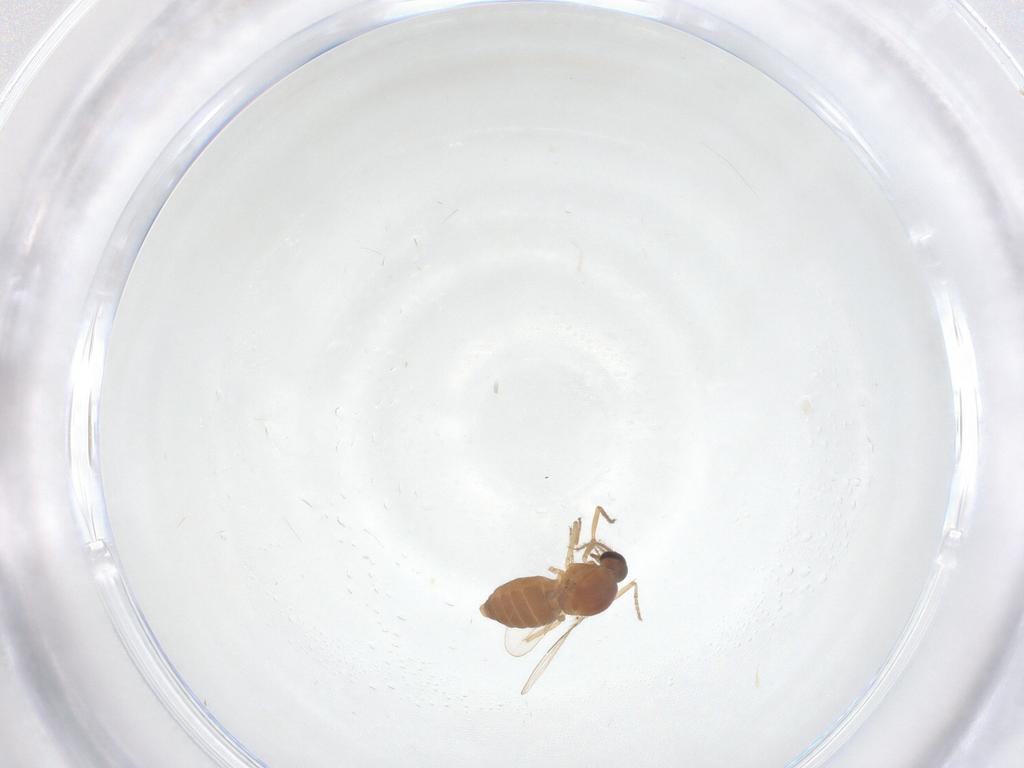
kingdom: Animalia
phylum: Arthropoda
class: Insecta
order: Diptera
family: Ceratopogonidae
